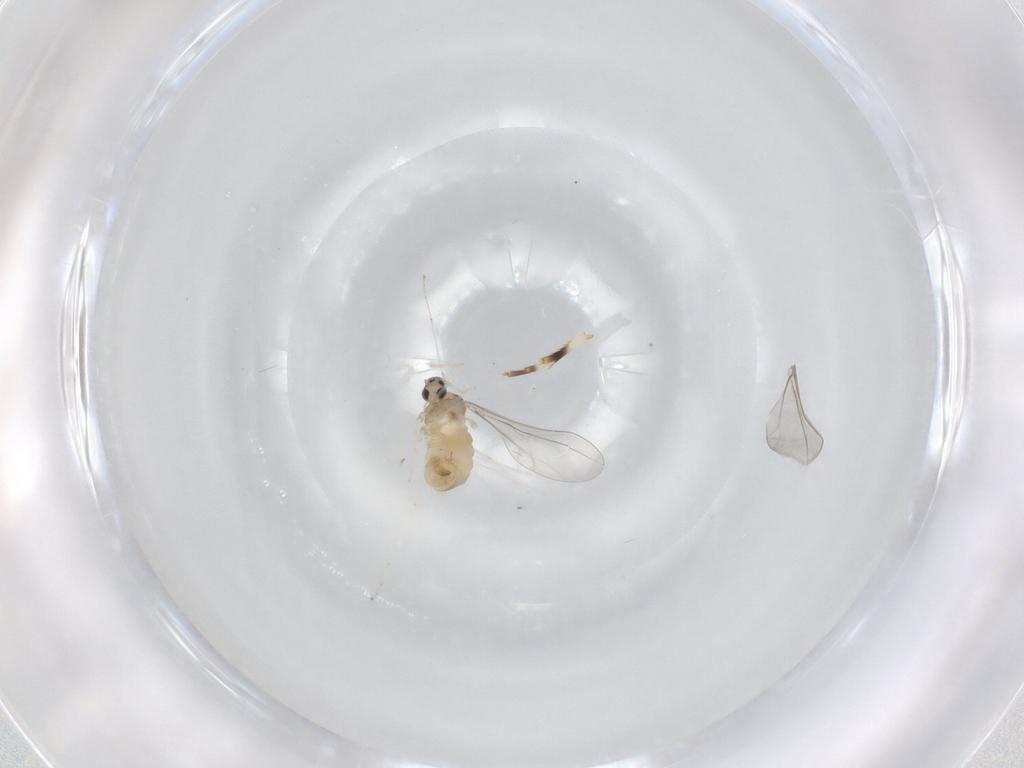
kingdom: Animalia
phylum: Arthropoda
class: Insecta
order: Diptera
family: Cecidomyiidae
